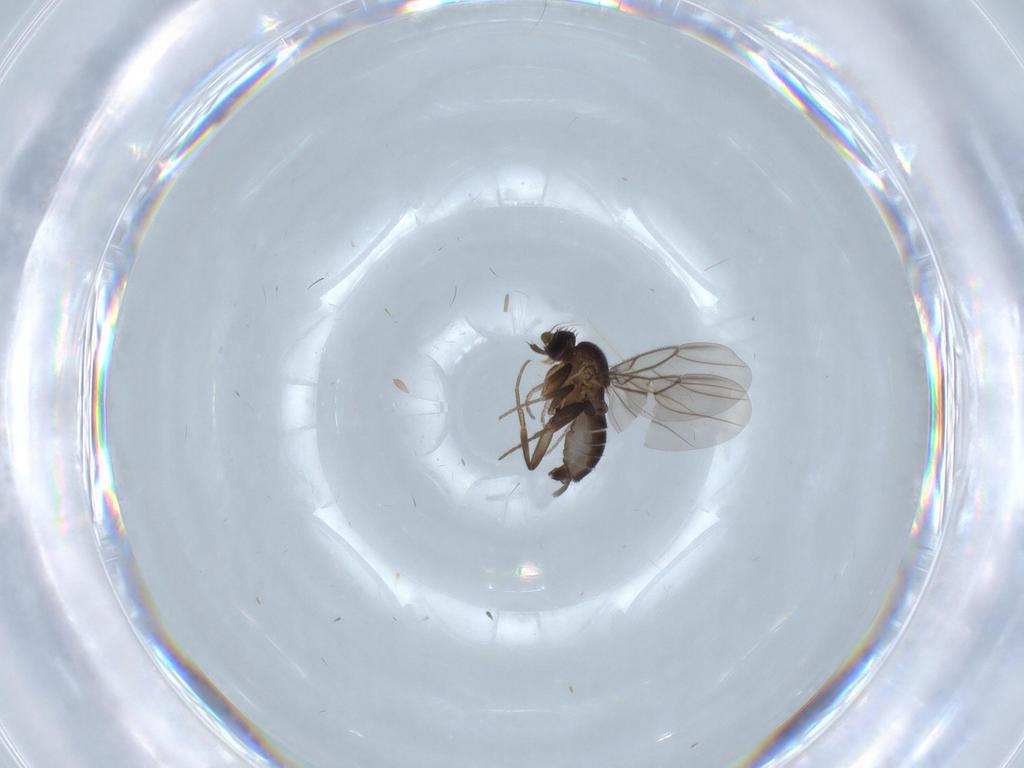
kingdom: Animalia
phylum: Arthropoda
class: Insecta
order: Diptera
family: Phoridae
